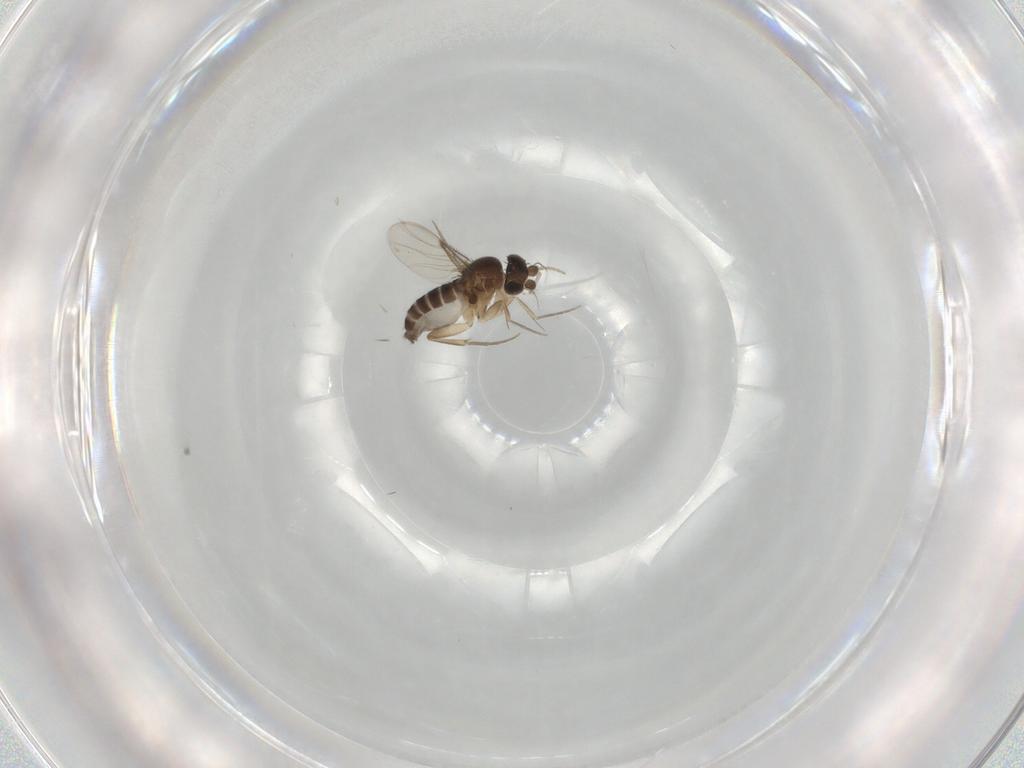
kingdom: Animalia
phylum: Arthropoda
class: Insecta
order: Diptera
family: Phoridae
